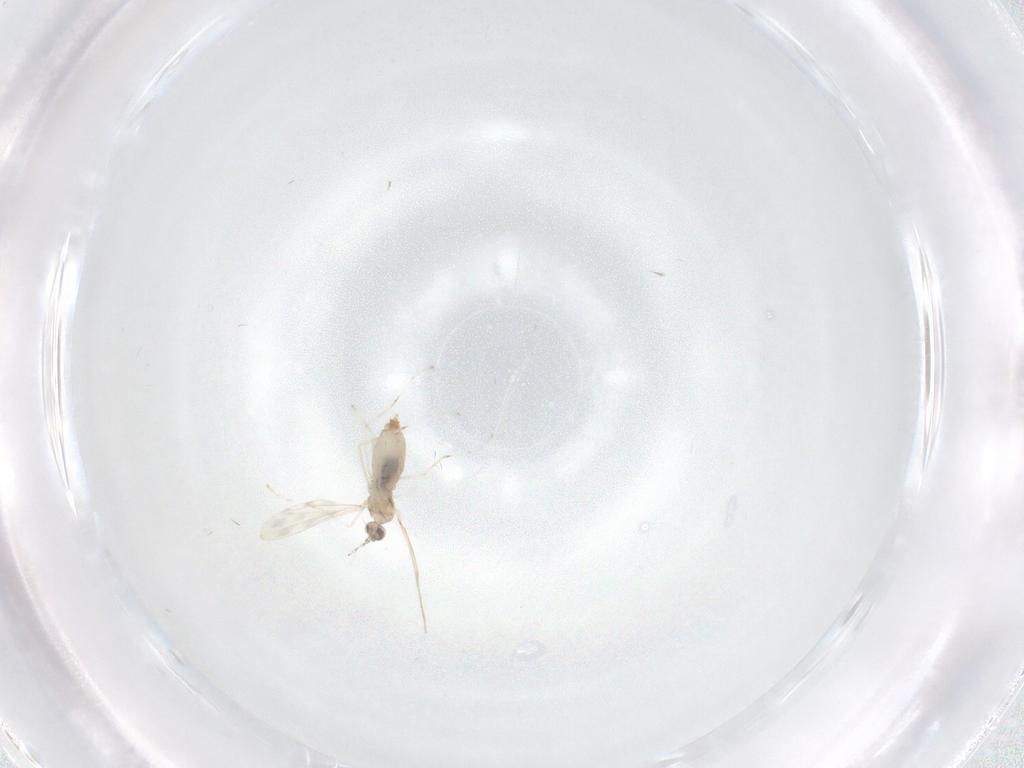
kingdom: Animalia
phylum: Arthropoda
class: Insecta
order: Diptera
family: Cecidomyiidae
